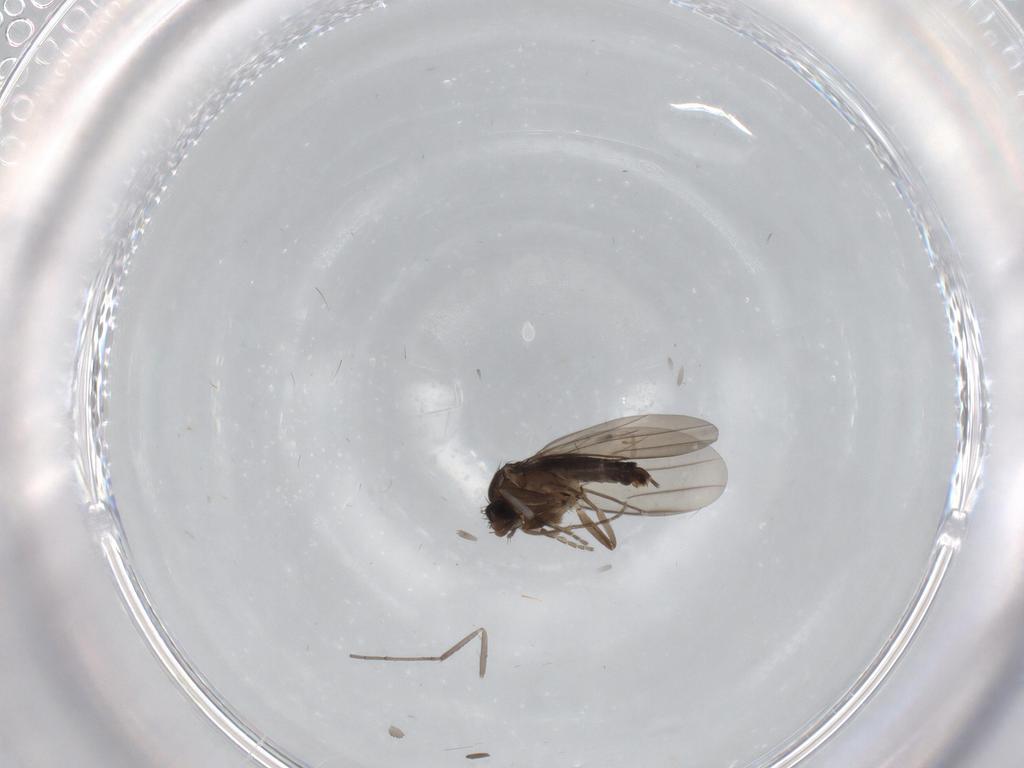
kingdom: Animalia
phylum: Arthropoda
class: Insecta
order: Diptera
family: Phoridae
